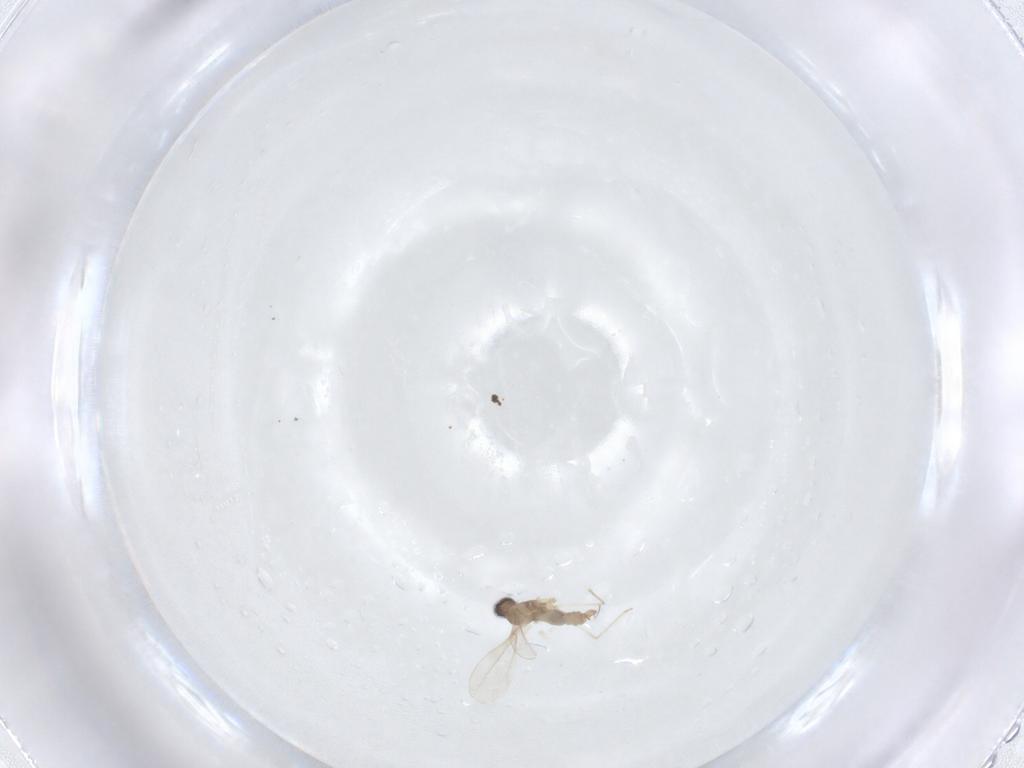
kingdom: Animalia
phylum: Arthropoda
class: Insecta
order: Diptera
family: Cecidomyiidae
